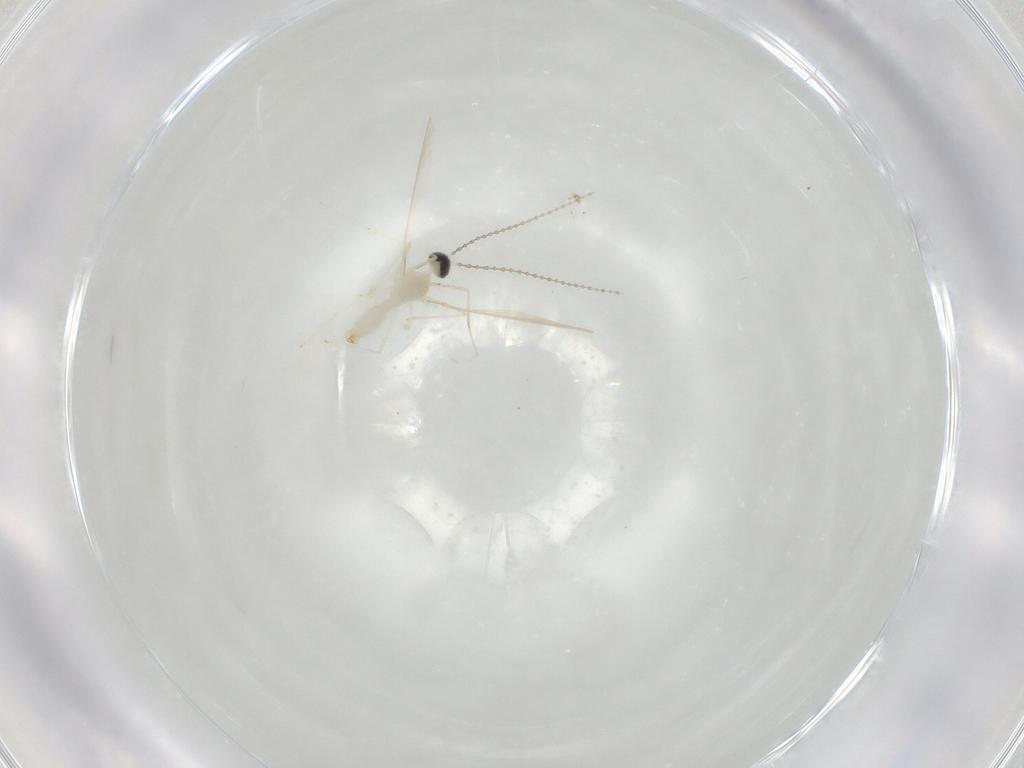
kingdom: Animalia
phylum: Arthropoda
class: Insecta
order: Diptera
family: Cecidomyiidae
